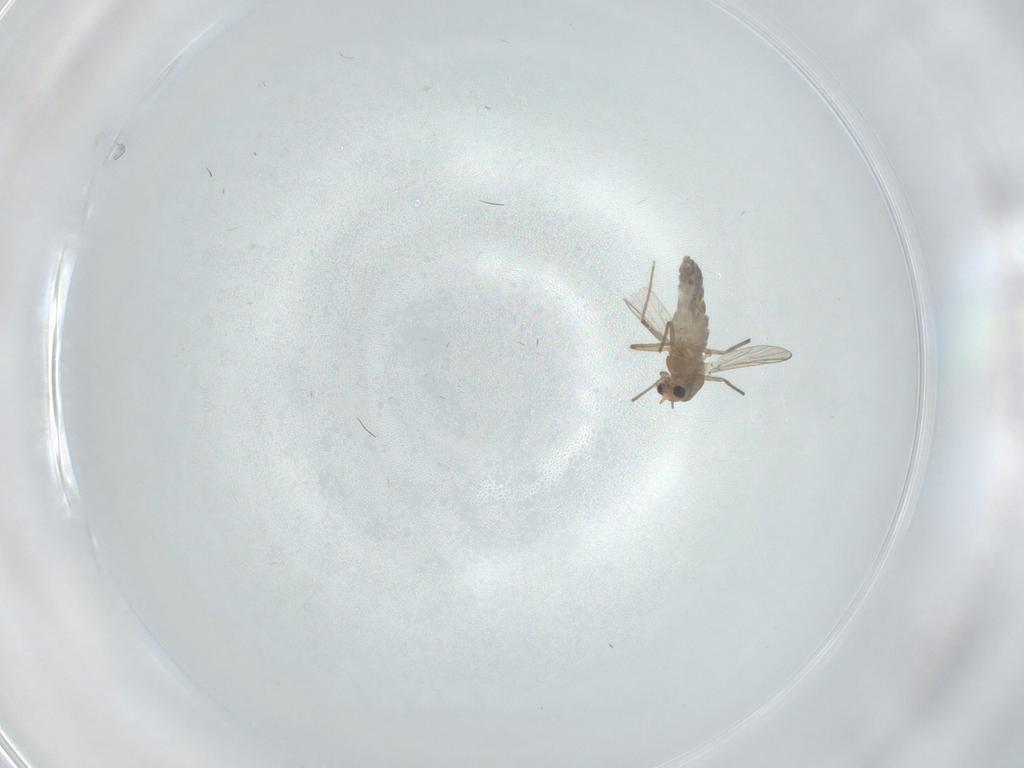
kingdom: Animalia
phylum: Arthropoda
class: Insecta
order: Diptera
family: Chironomidae
